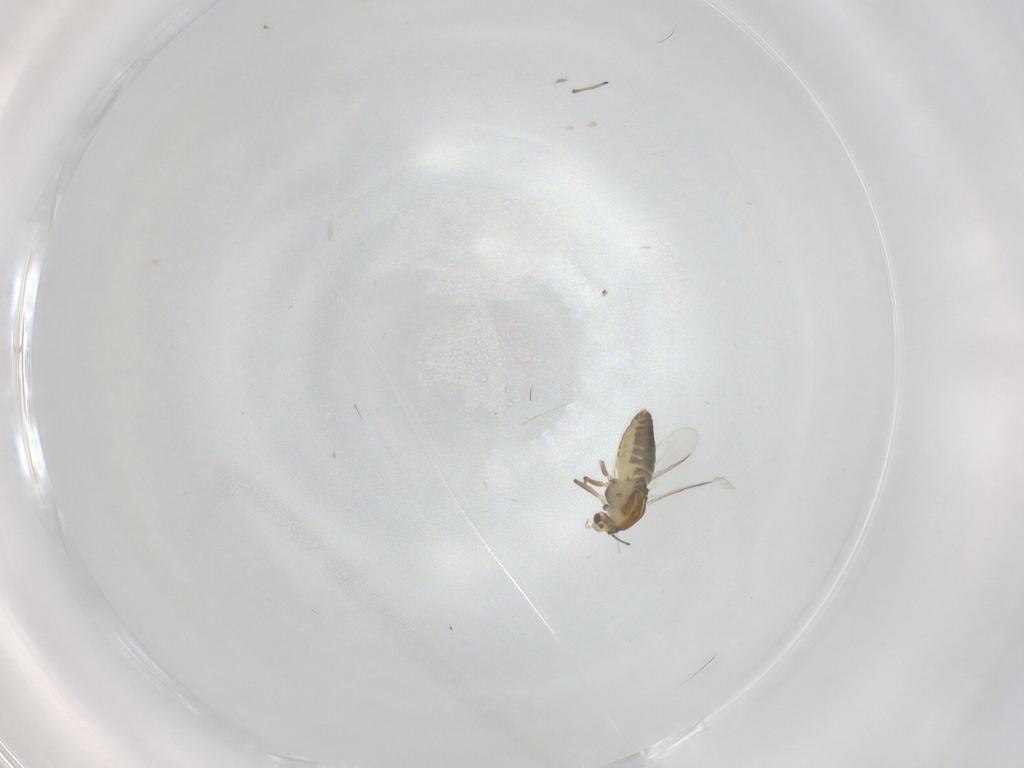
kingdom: Animalia
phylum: Arthropoda
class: Insecta
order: Diptera
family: Chironomidae
